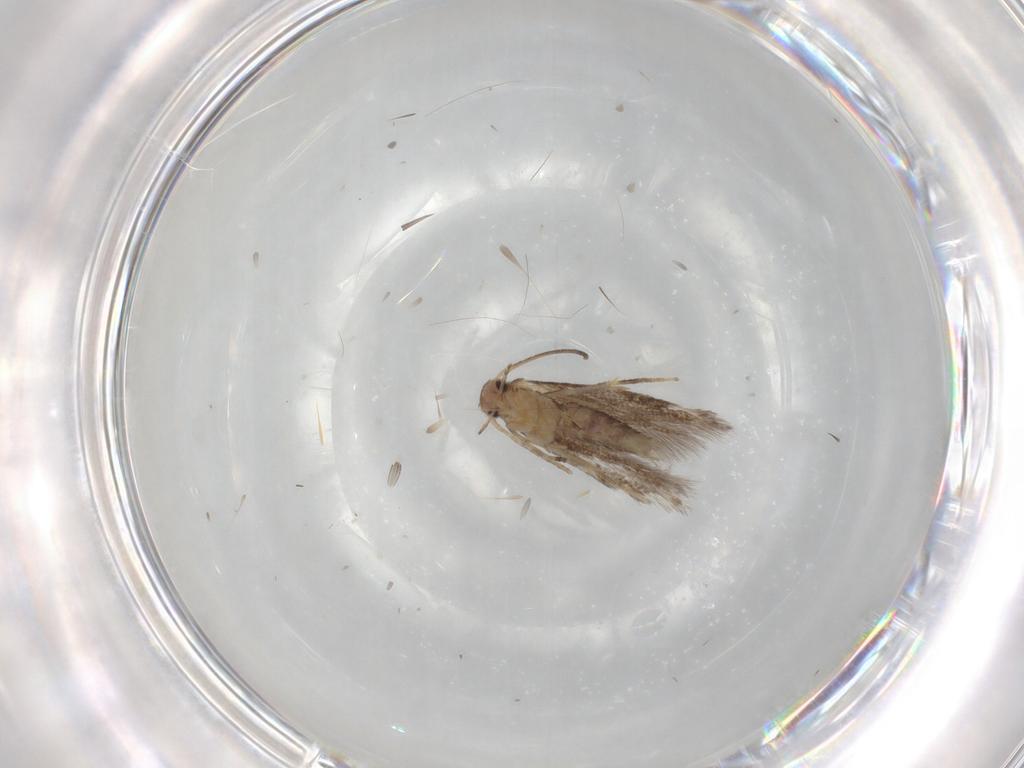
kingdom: Animalia
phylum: Arthropoda
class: Insecta
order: Lepidoptera
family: Elachistidae
